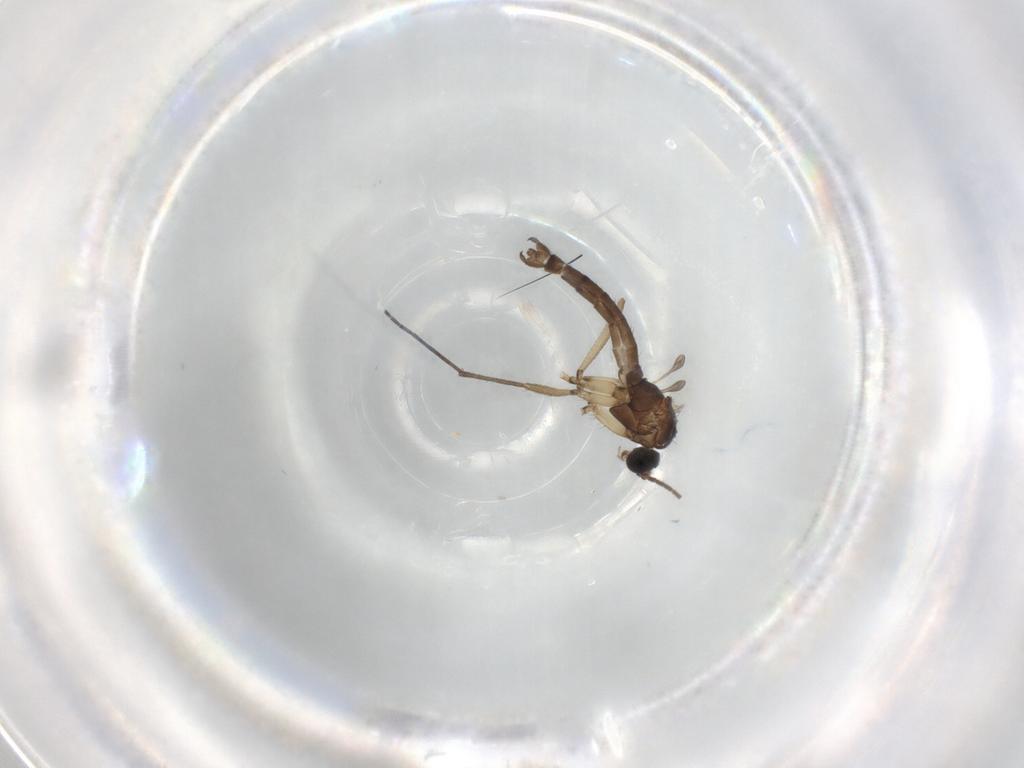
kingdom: Animalia
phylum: Arthropoda
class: Insecta
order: Diptera
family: Sciaridae
